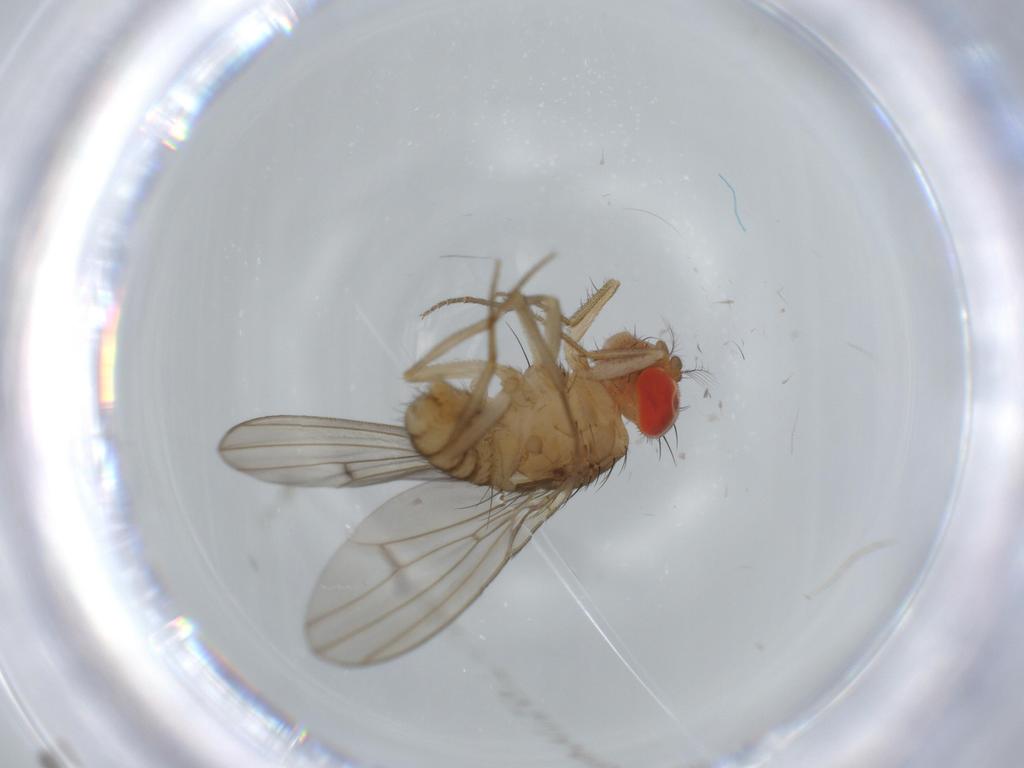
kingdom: Animalia
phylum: Arthropoda
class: Insecta
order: Diptera
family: Drosophilidae
